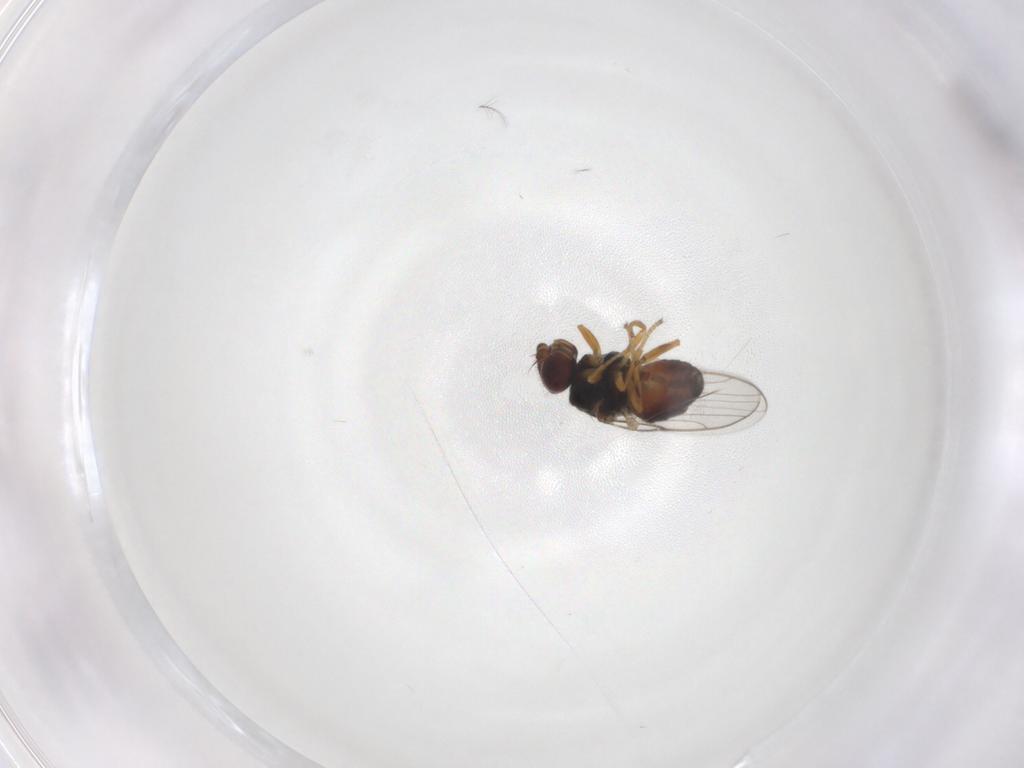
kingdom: Animalia
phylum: Arthropoda
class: Insecta
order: Diptera
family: Chloropidae
